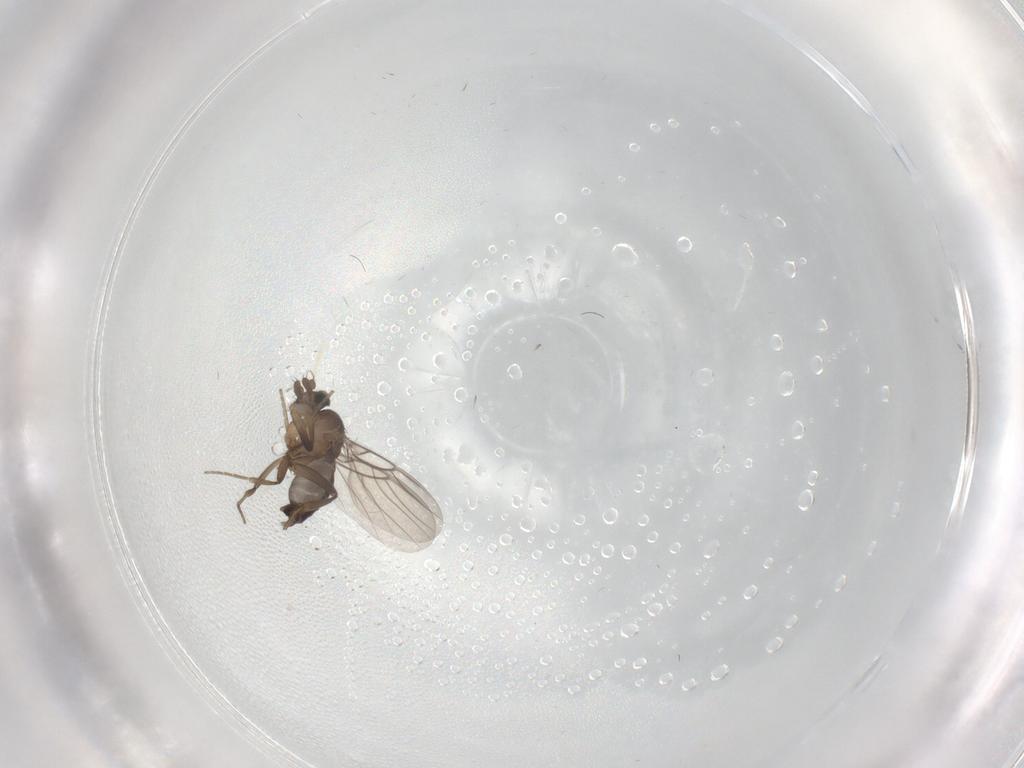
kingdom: Animalia
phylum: Arthropoda
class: Insecta
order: Diptera
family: Phoridae
